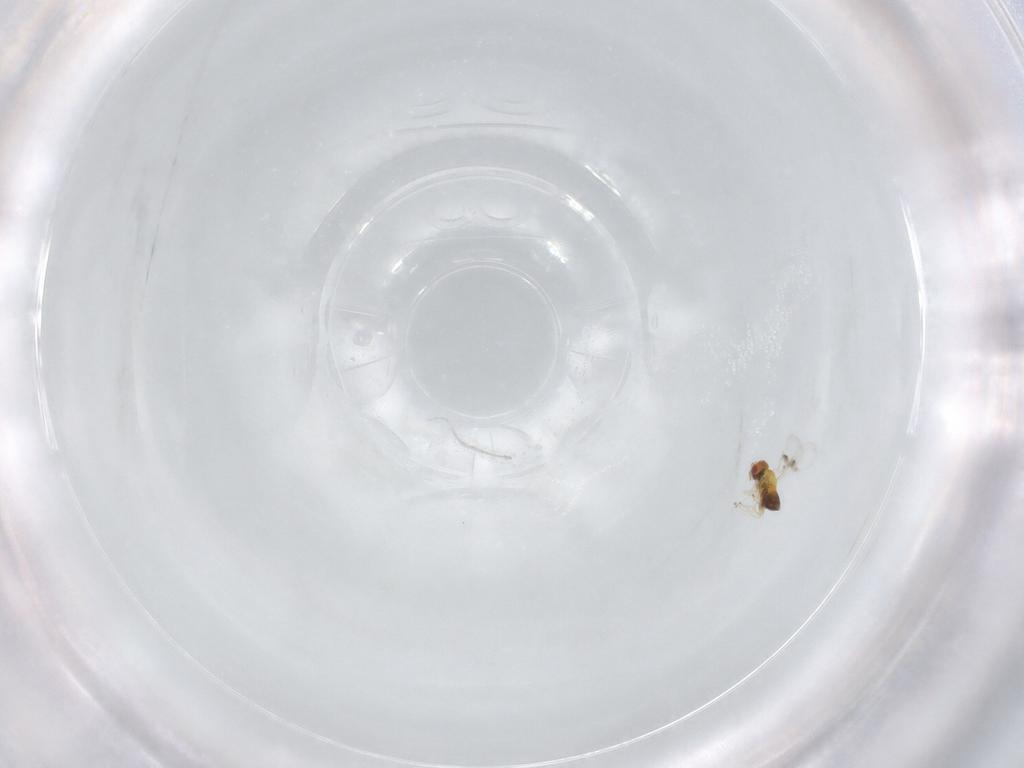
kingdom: Animalia
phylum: Arthropoda
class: Insecta
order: Hymenoptera
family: Trichogrammatidae
